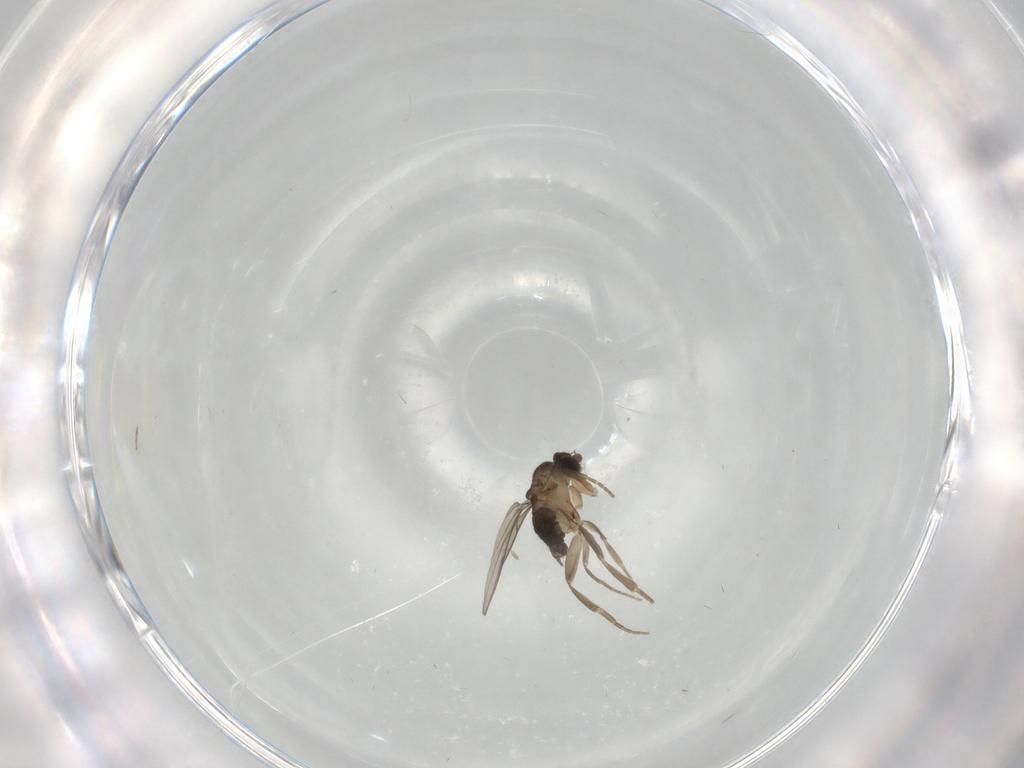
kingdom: Animalia
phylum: Arthropoda
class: Insecta
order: Diptera
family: Phoridae
